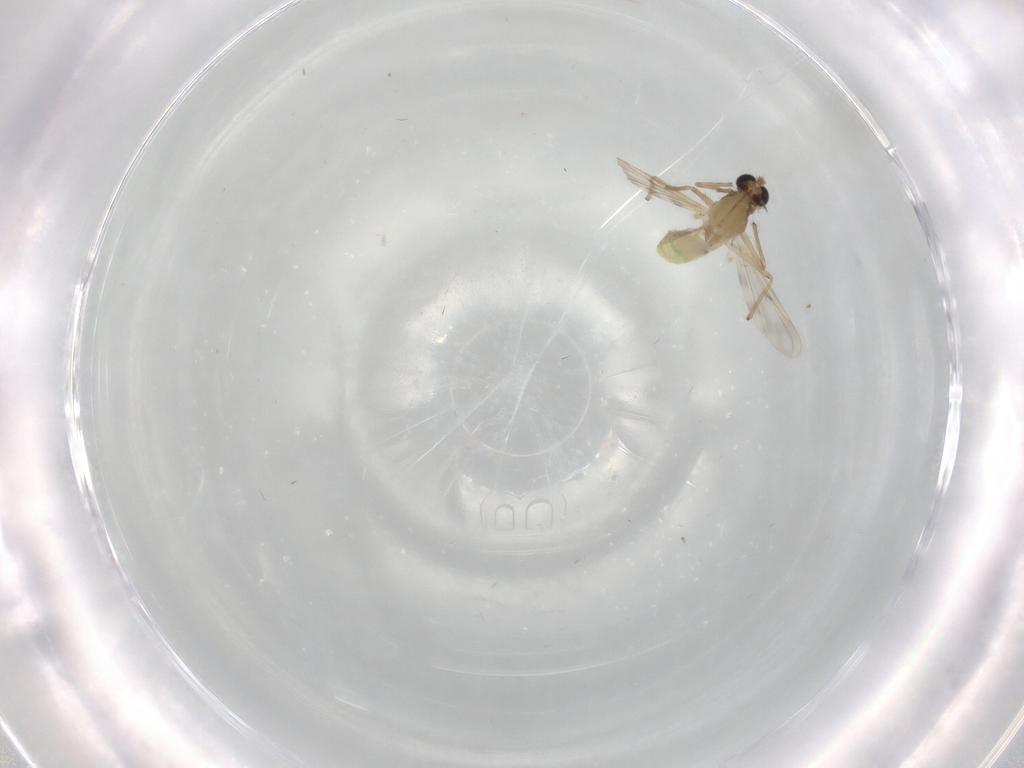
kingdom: Animalia
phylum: Arthropoda
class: Insecta
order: Diptera
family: Chironomidae
